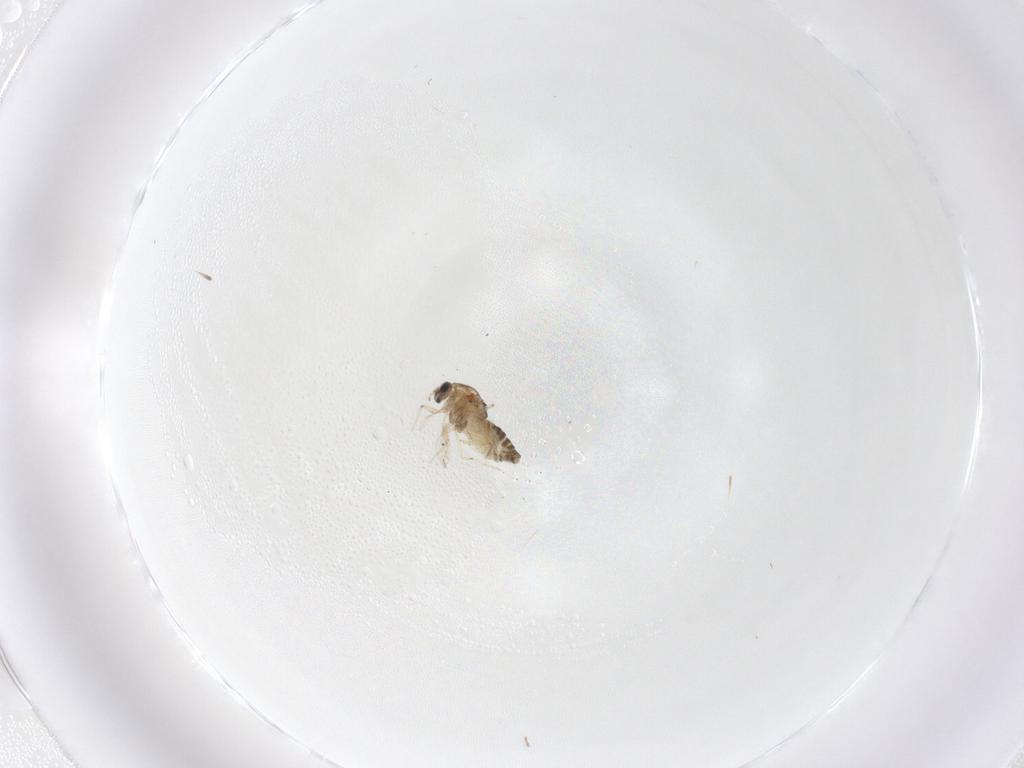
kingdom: Animalia
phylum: Arthropoda
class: Insecta
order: Diptera
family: Chironomidae
